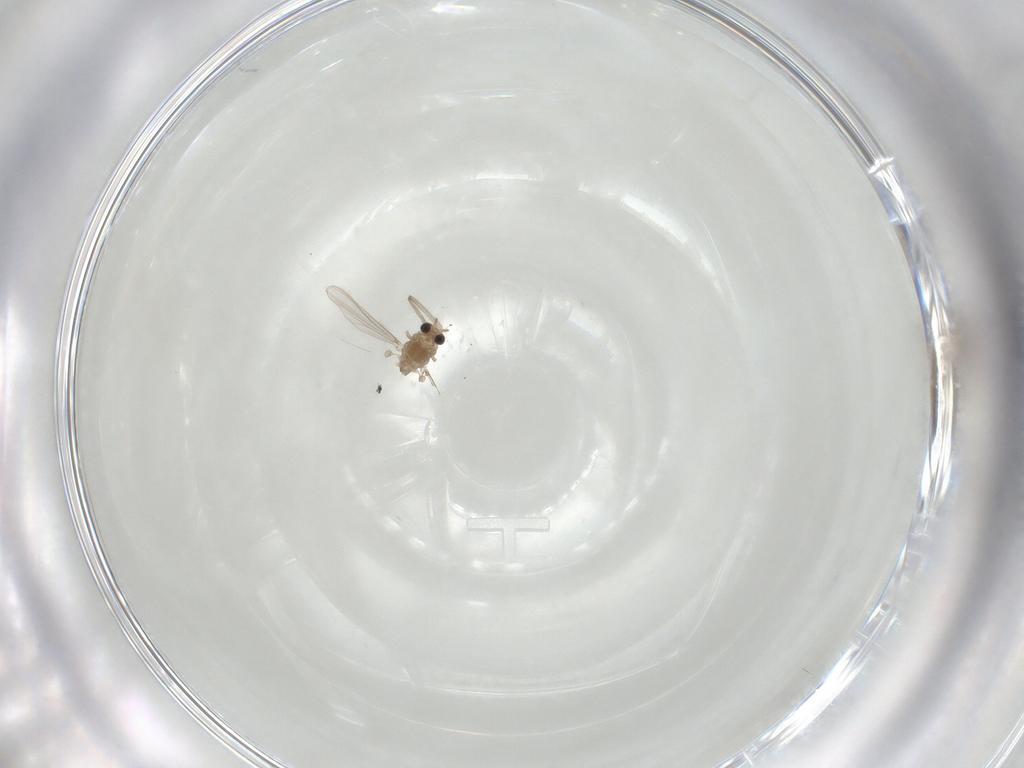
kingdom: Animalia
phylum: Arthropoda
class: Insecta
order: Diptera
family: Chironomidae
